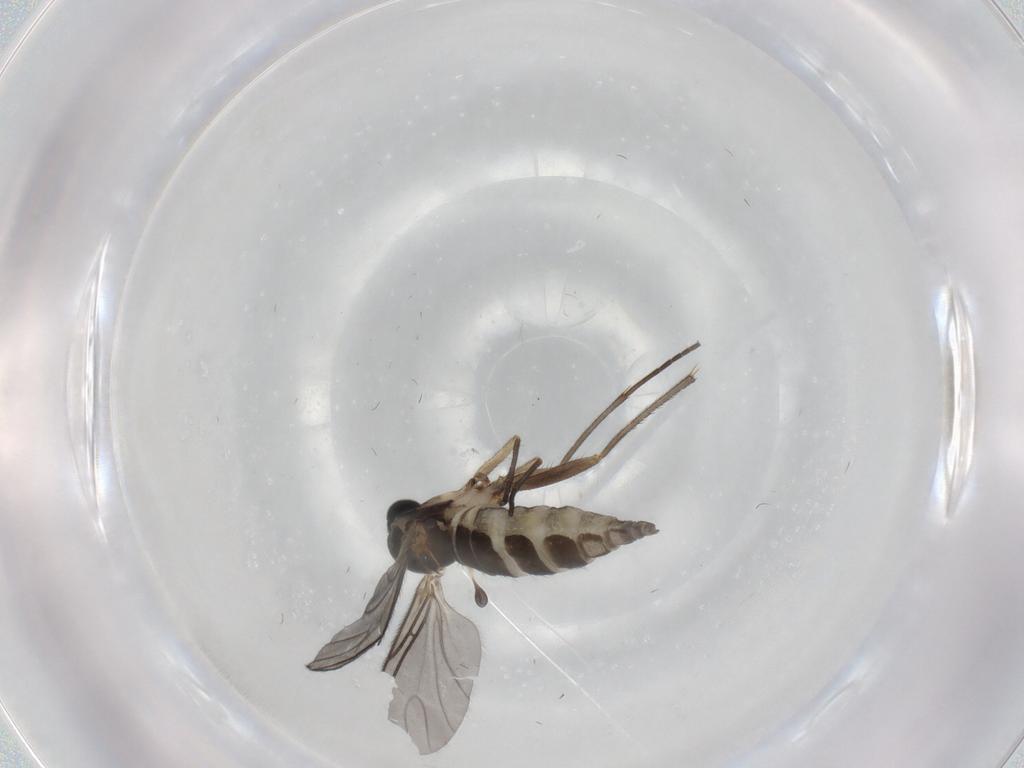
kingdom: Animalia
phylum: Arthropoda
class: Insecta
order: Diptera
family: Sciaridae
